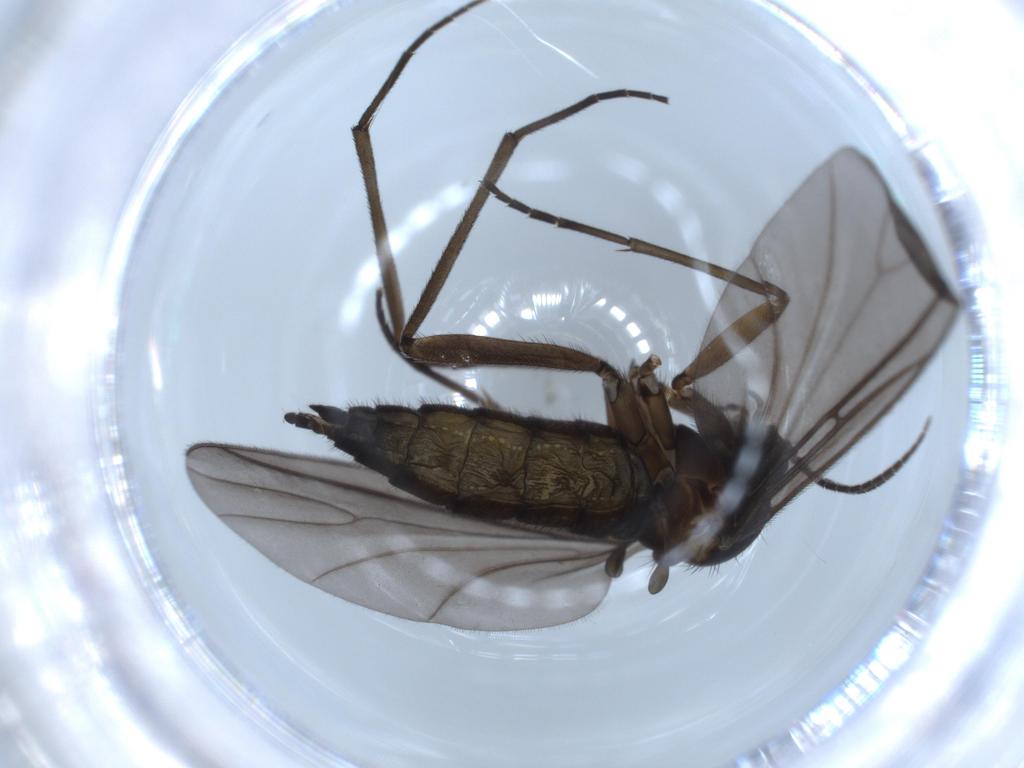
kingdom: Animalia
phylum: Arthropoda
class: Insecta
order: Diptera
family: Sciaridae
